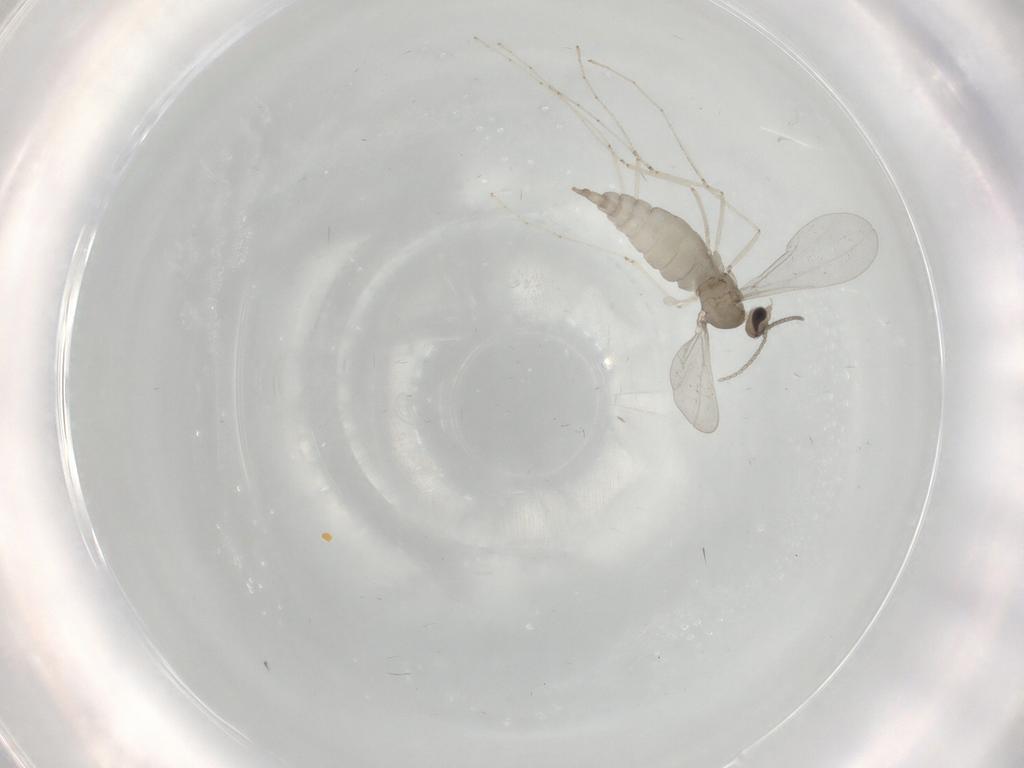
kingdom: Animalia
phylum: Arthropoda
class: Insecta
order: Diptera
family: Cecidomyiidae
